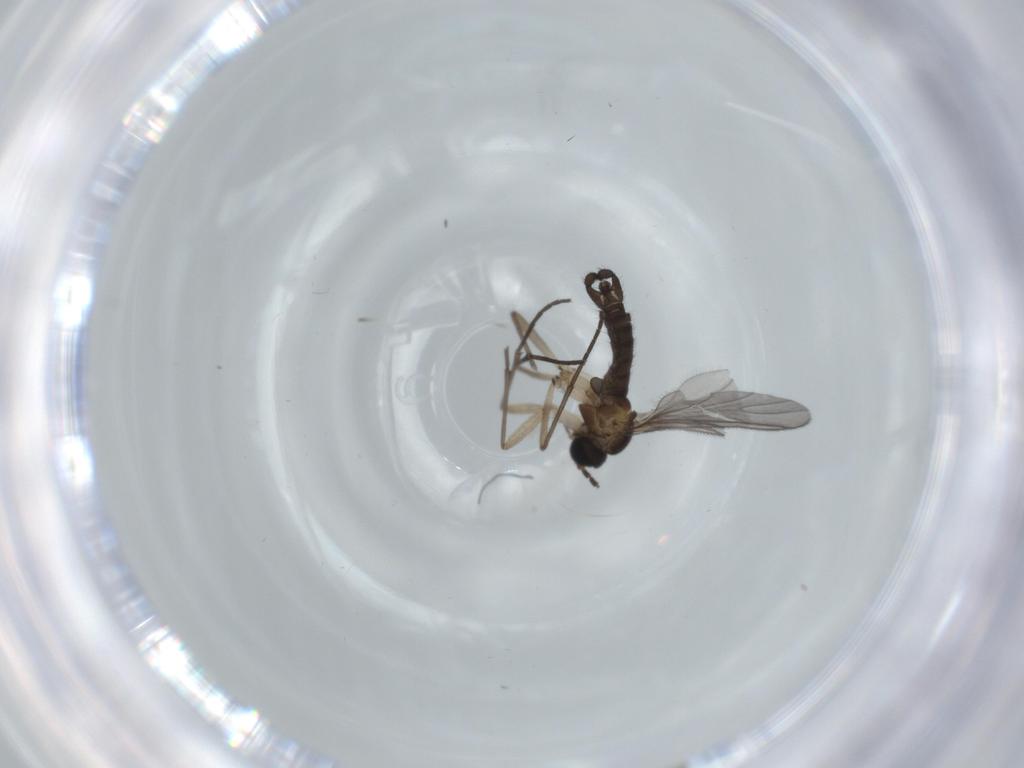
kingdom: Animalia
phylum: Arthropoda
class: Insecta
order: Diptera
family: Sciaridae
